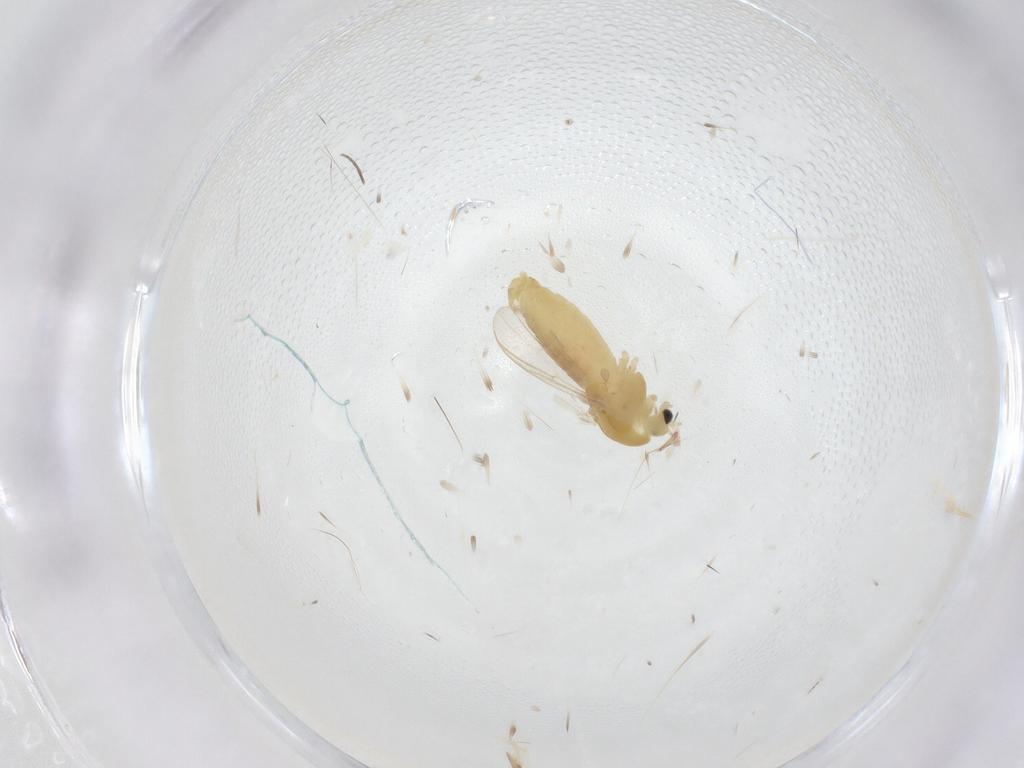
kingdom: Animalia
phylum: Arthropoda
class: Insecta
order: Diptera
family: Chironomidae
